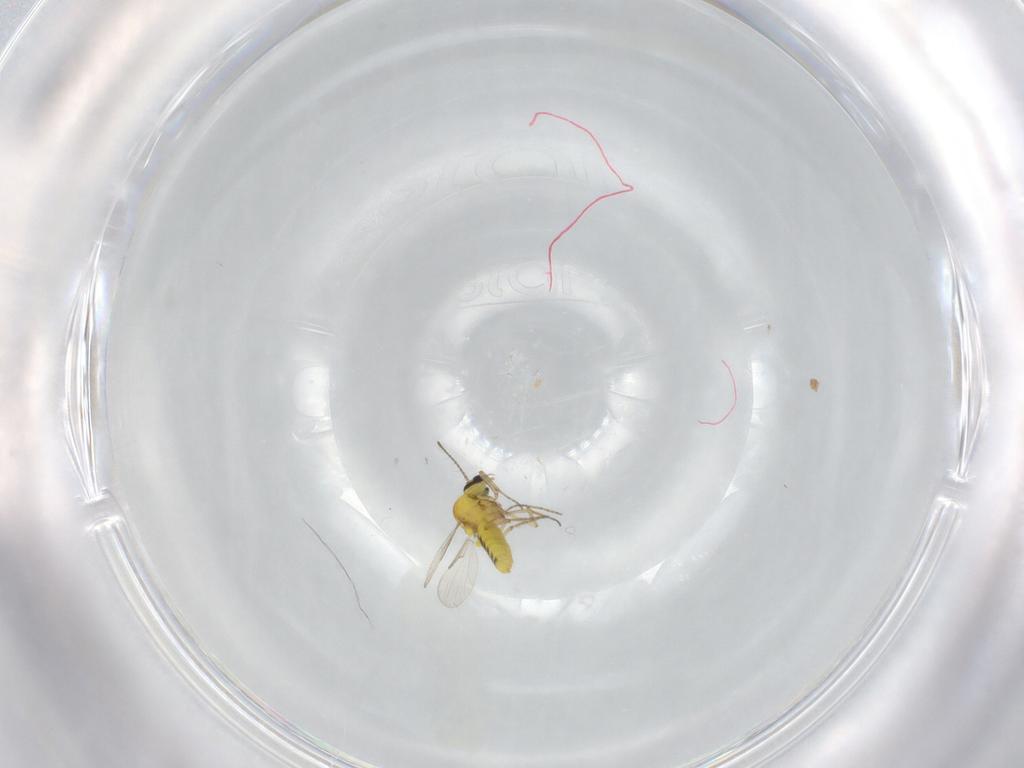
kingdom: Animalia
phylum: Arthropoda
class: Insecta
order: Diptera
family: Ceratopogonidae
